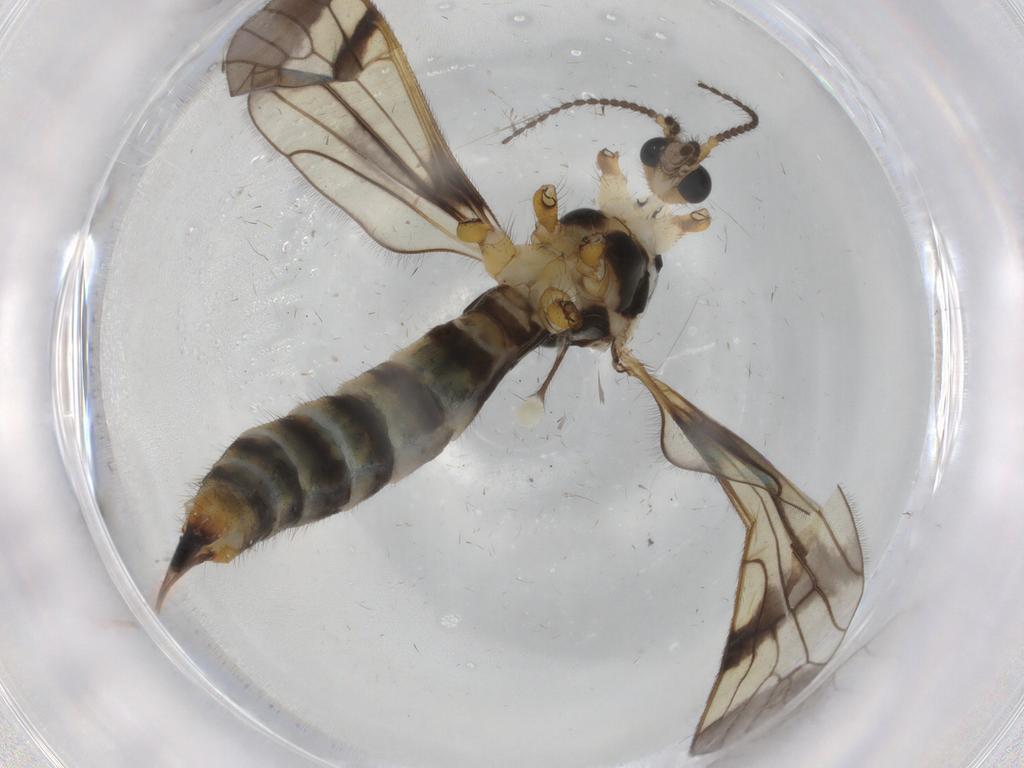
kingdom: Animalia
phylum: Arthropoda
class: Insecta
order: Diptera
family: Limoniidae
